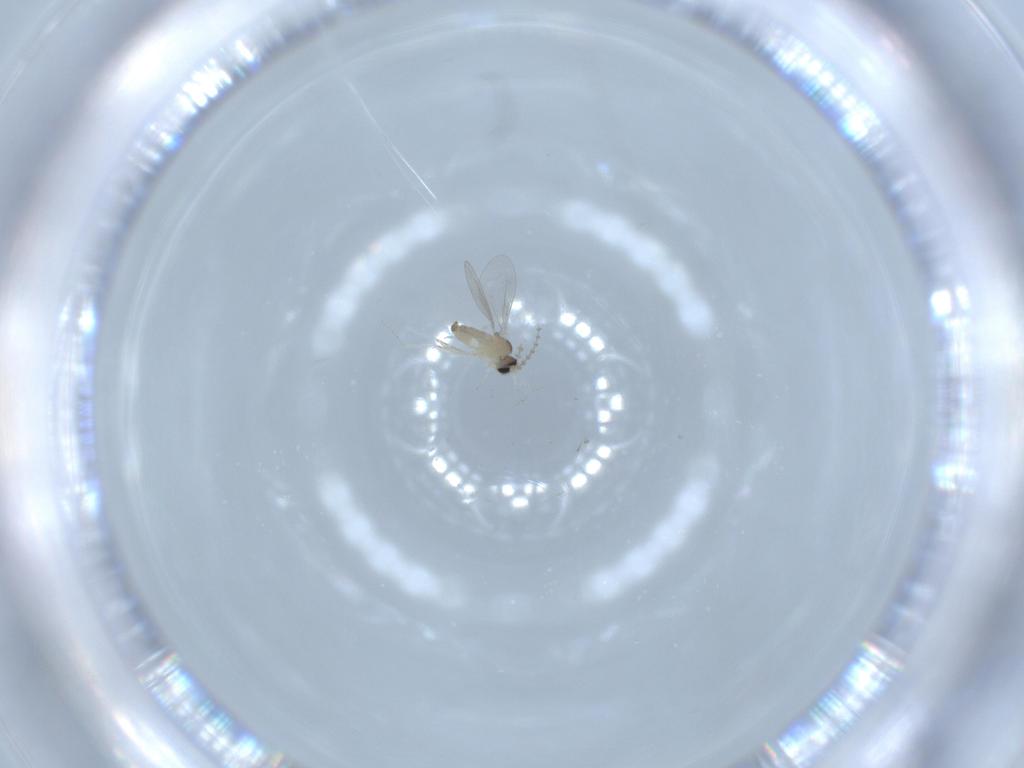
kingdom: Animalia
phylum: Arthropoda
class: Insecta
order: Diptera
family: Cecidomyiidae
